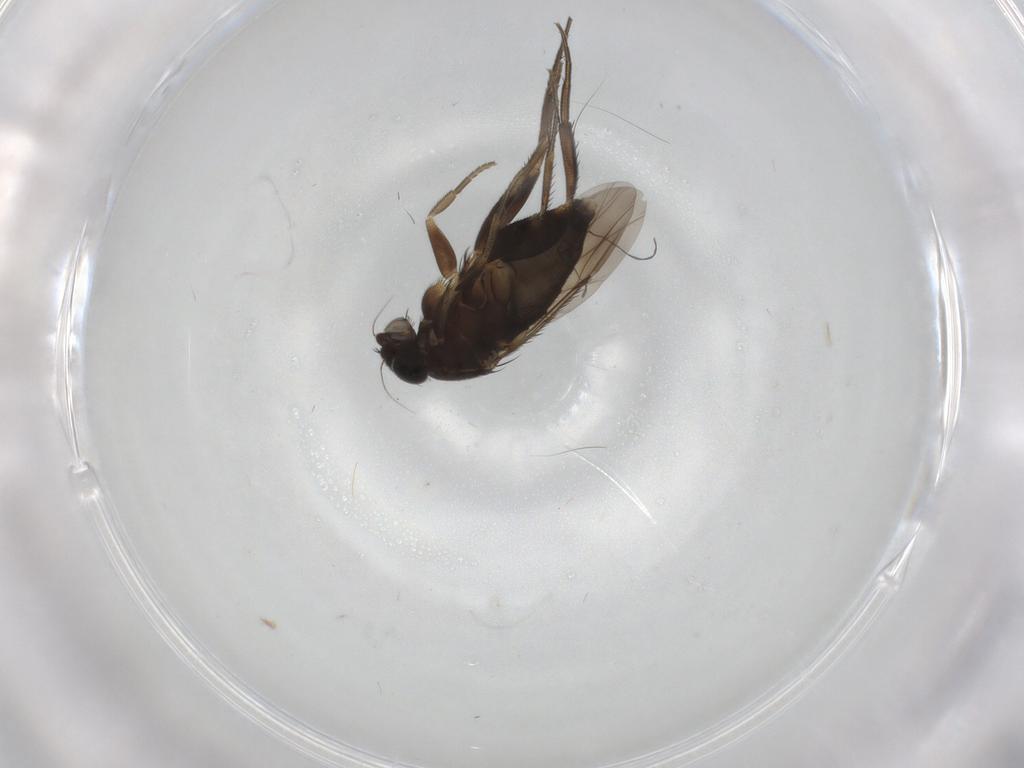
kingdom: Animalia
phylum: Arthropoda
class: Insecta
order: Diptera
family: Phoridae
